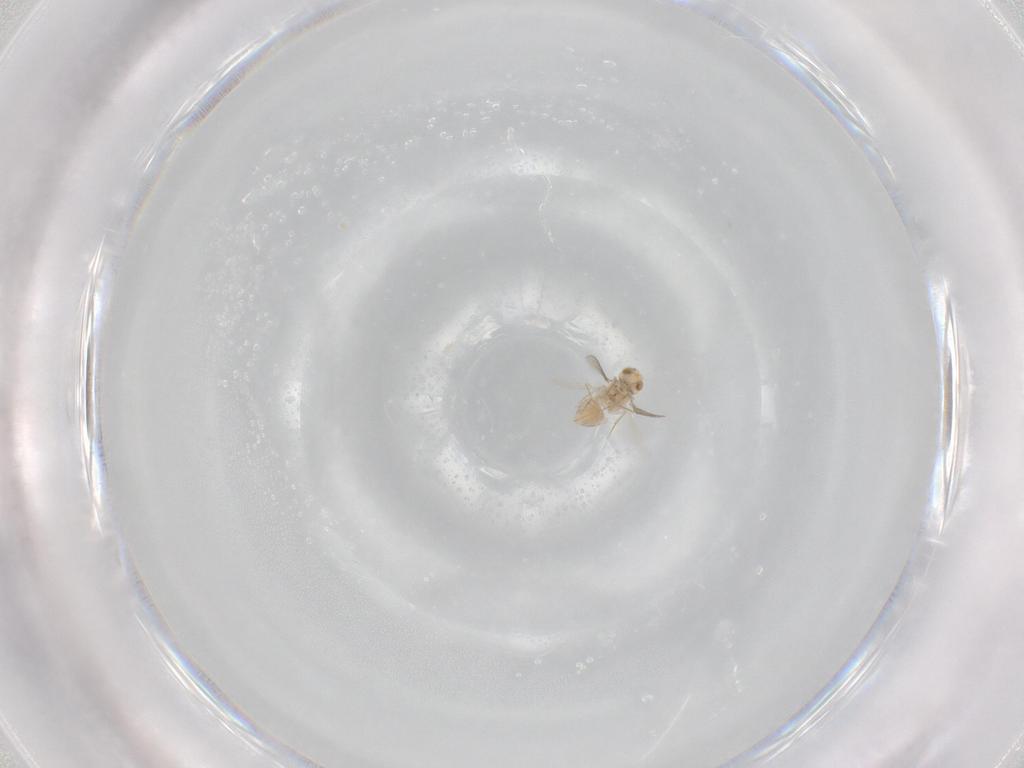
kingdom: Animalia
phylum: Arthropoda
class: Insecta
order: Hymenoptera
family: Aphelinidae
